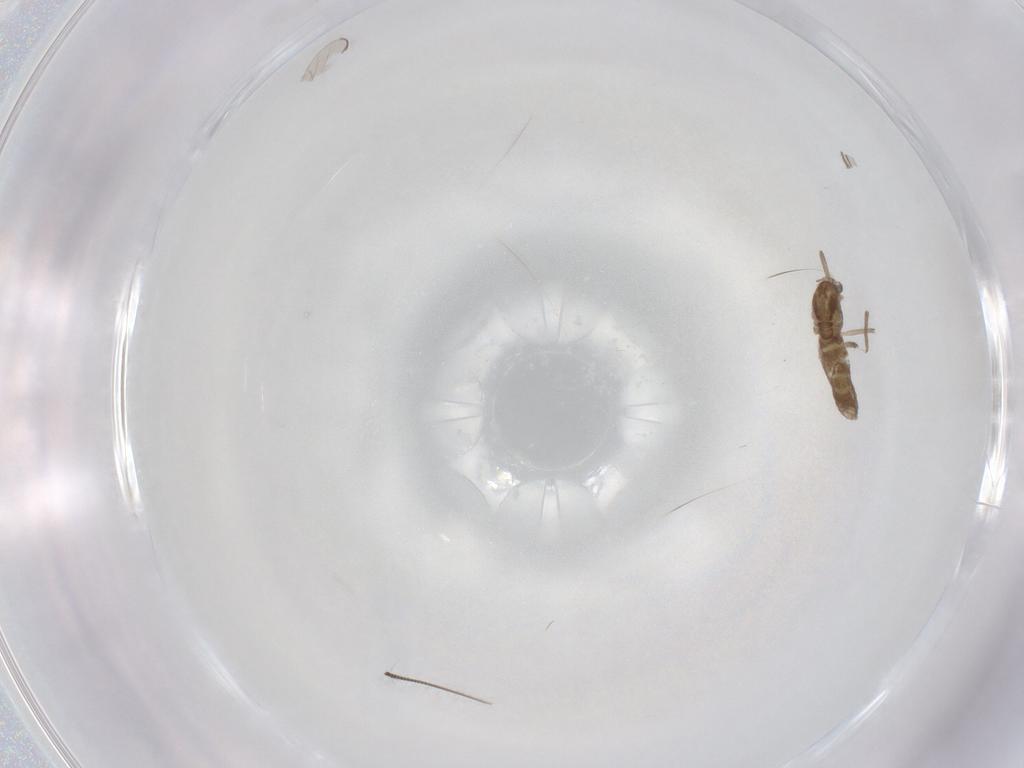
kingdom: Animalia
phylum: Arthropoda
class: Insecta
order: Diptera
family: Chironomidae
